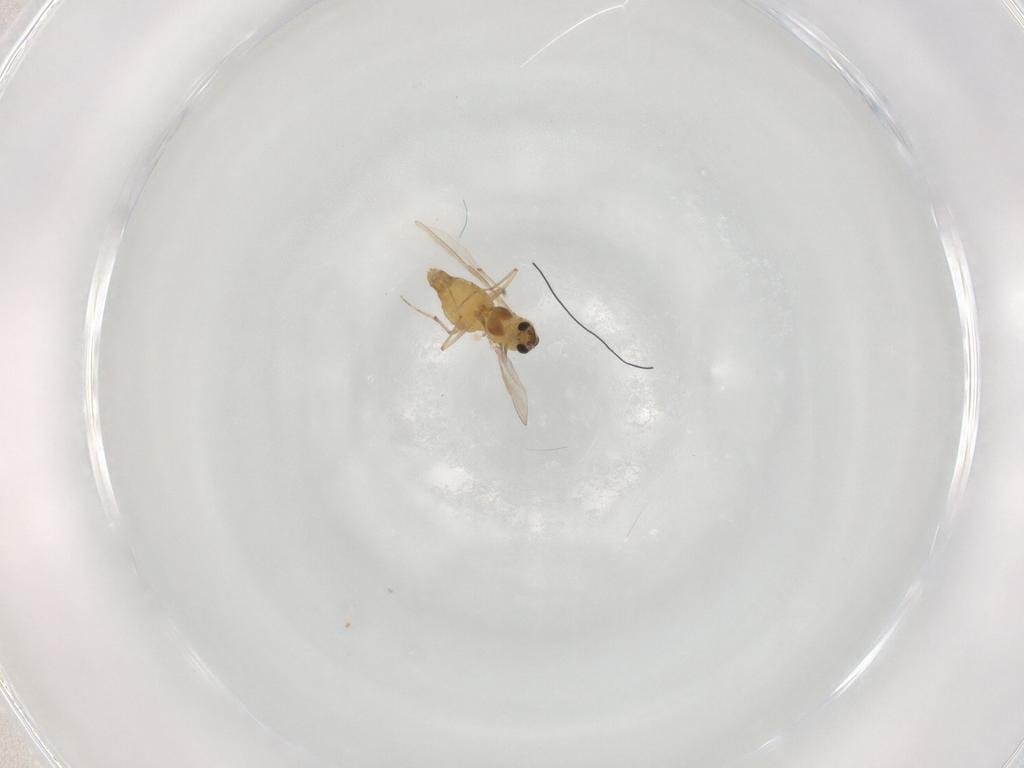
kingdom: Animalia
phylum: Arthropoda
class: Insecta
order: Diptera
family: Chironomidae
